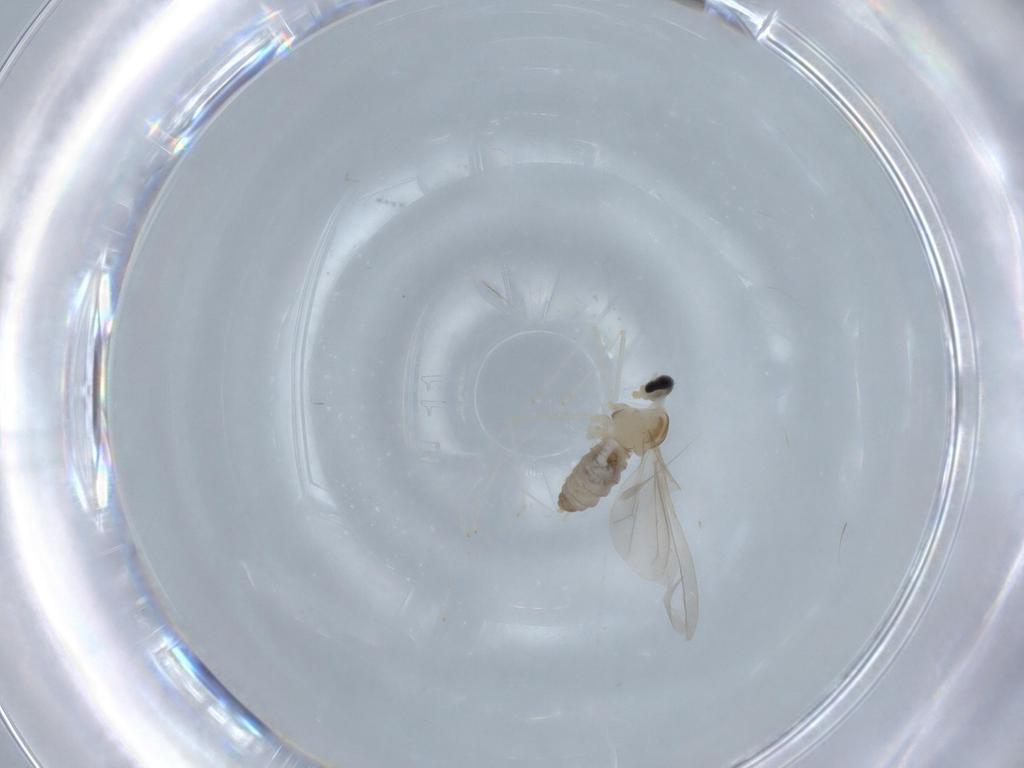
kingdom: Animalia
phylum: Arthropoda
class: Insecta
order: Diptera
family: Cecidomyiidae
